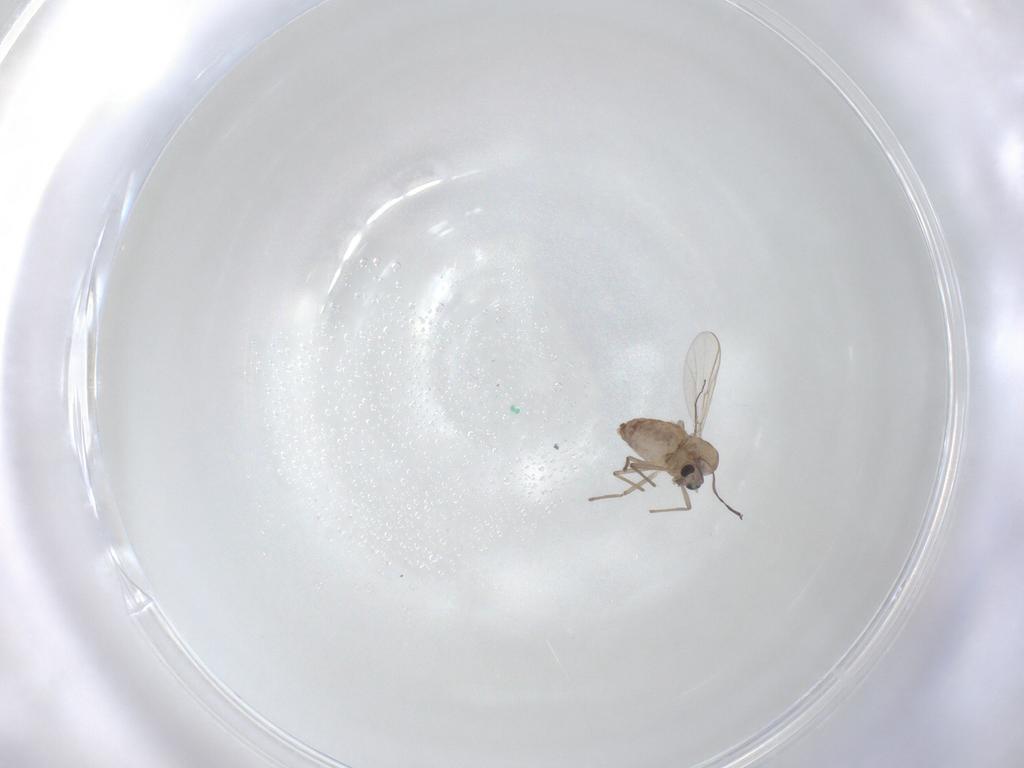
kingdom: Animalia
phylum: Arthropoda
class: Insecta
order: Diptera
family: Chironomidae
